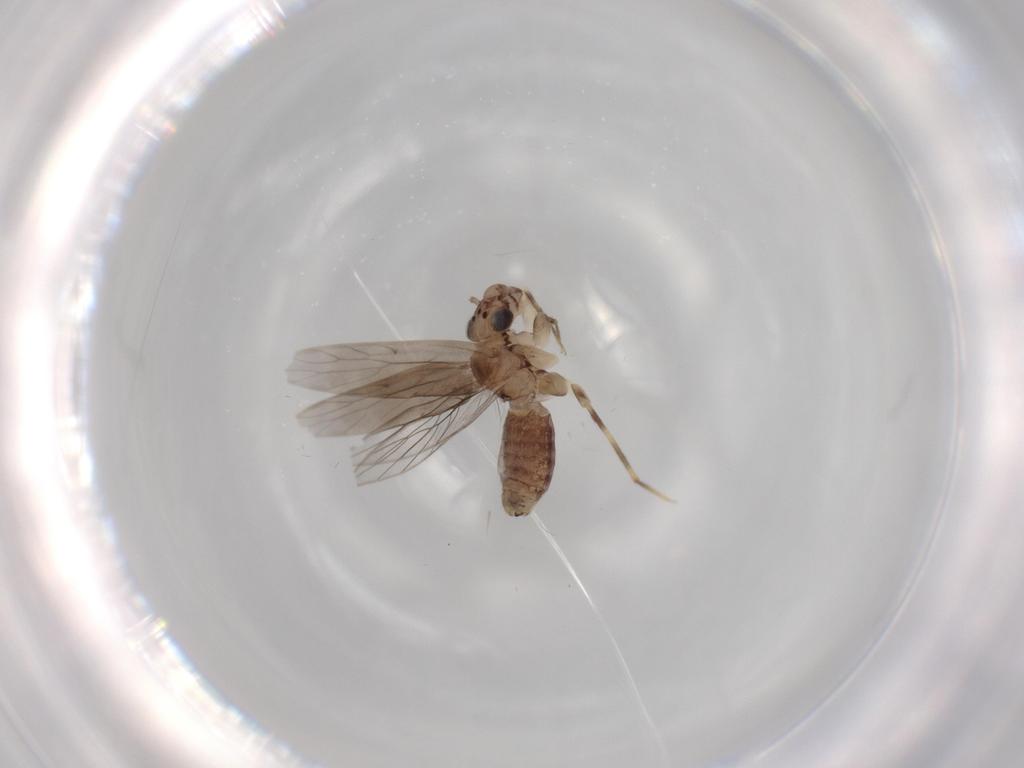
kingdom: Animalia
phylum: Arthropoda
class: Insecta
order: Psocodea
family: Lepidopsocidae
